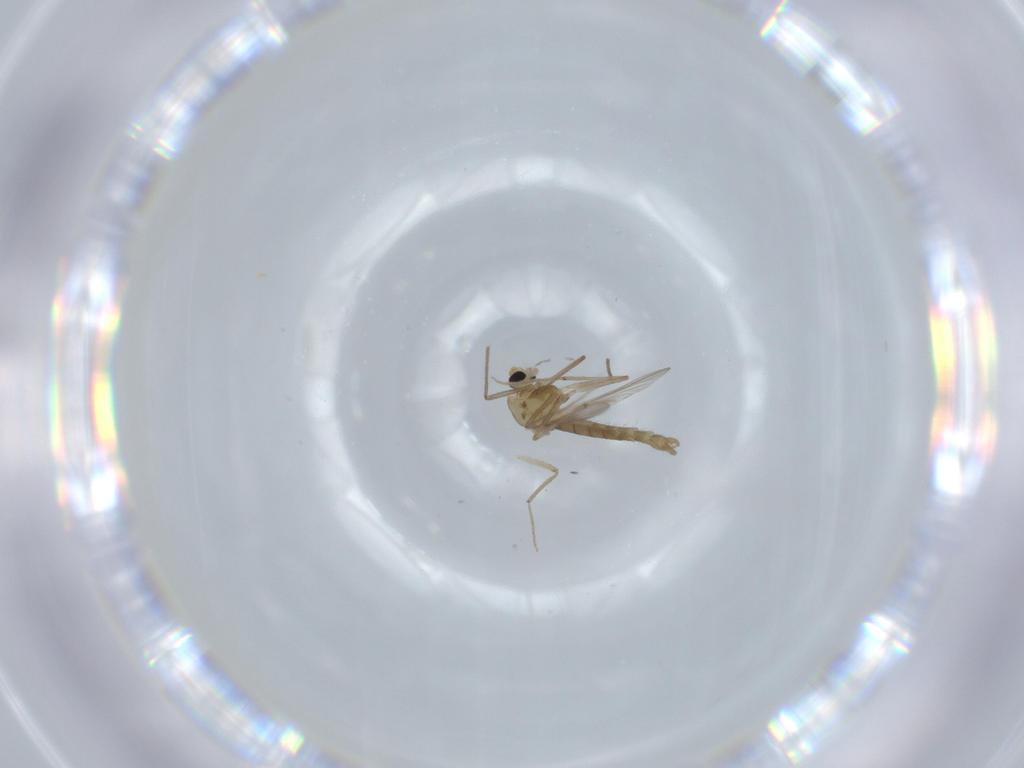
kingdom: Animalia
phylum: Arthropoda
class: Insecta
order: Diptera
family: Chironomidae
